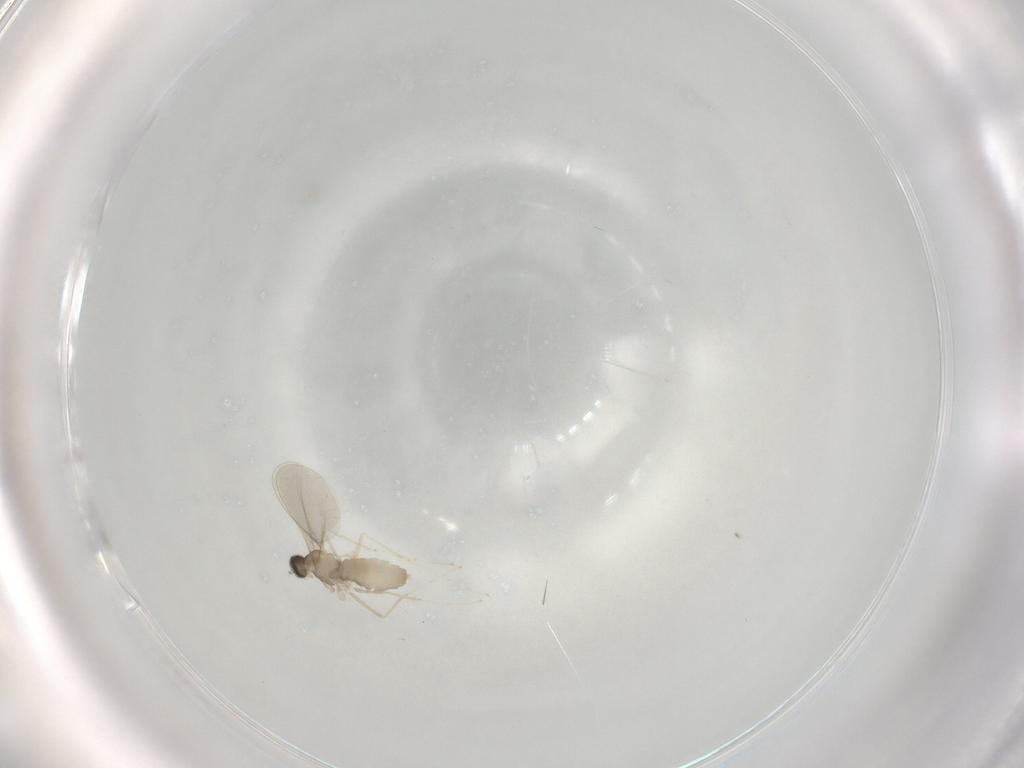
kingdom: Animalia
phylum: Arthropoda
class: Insecta
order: Diptera
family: Cecidomyiidae
